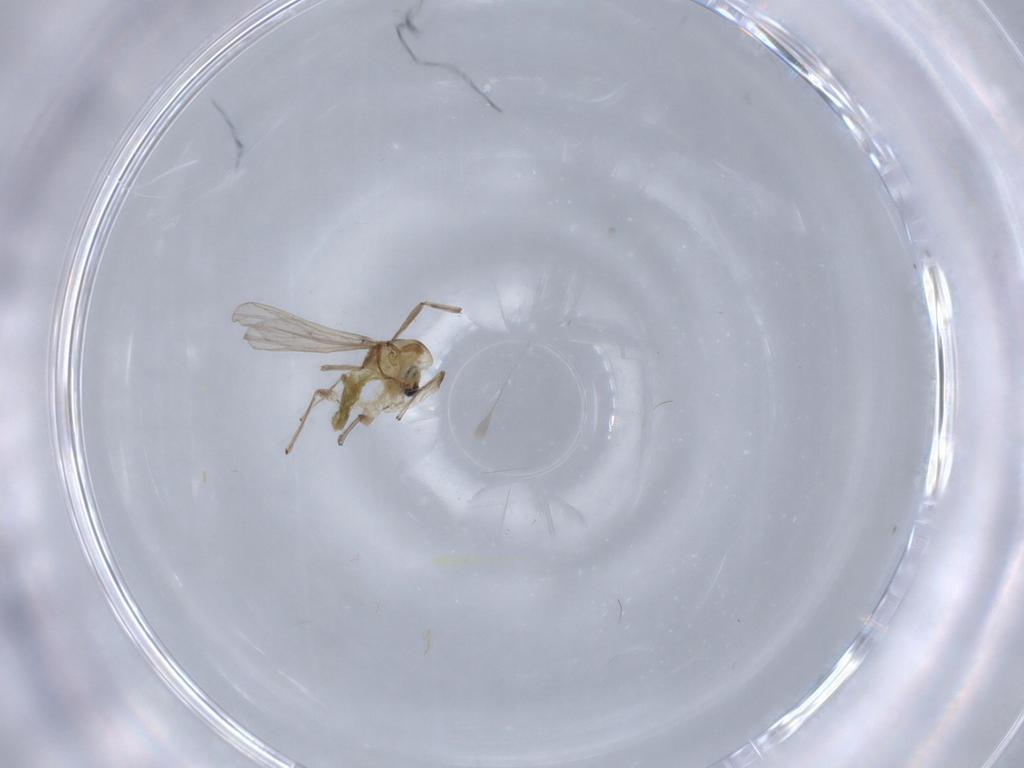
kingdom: Animalia
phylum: Arthropoda
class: Insecta
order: Diptera
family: Chironomidae
